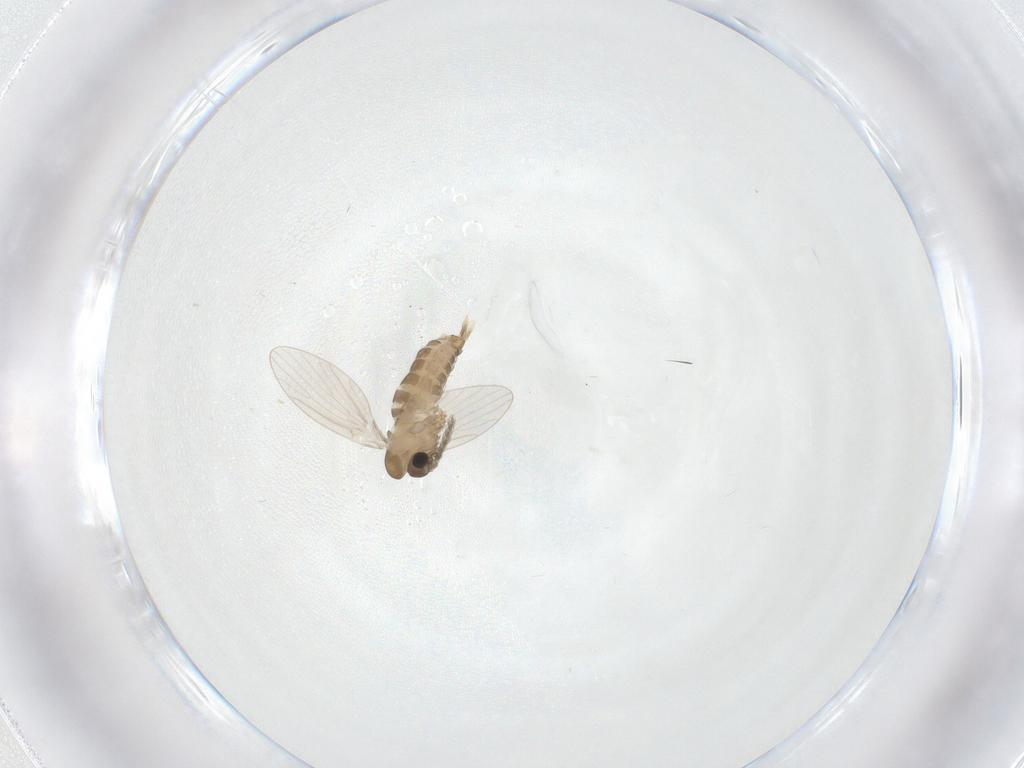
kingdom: Animalia
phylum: Arthropoda
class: Insecta
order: Diptera
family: Psychodidae
